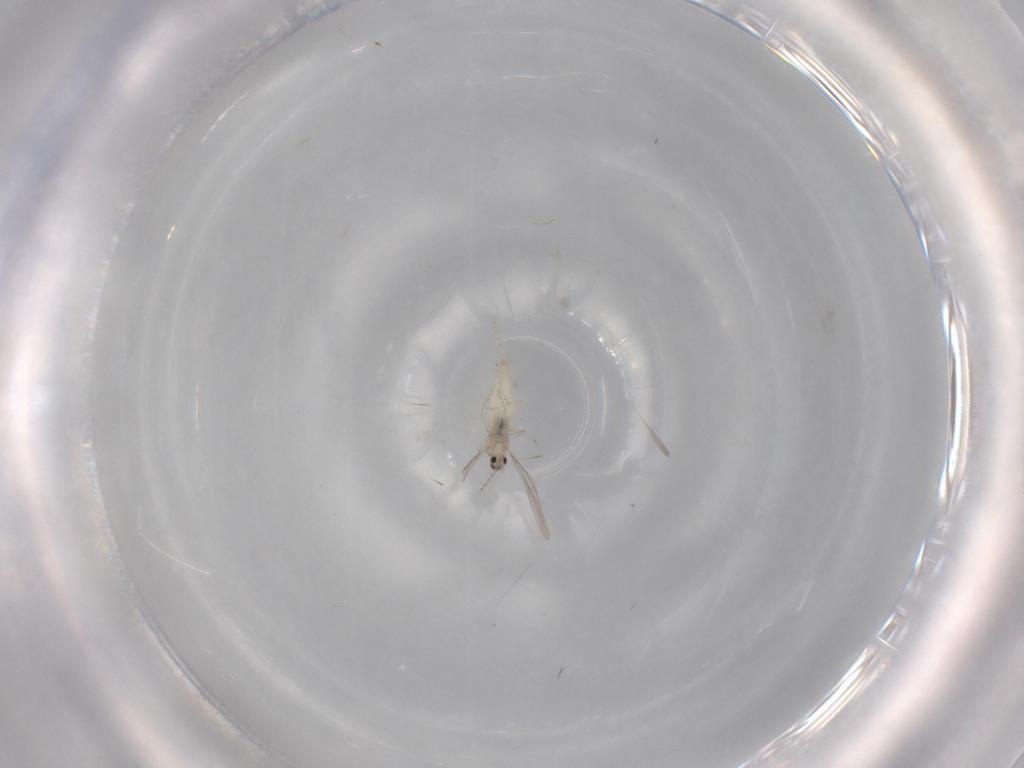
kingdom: Animalia
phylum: Arthropoda
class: Insecta
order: Diptera
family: Cecidomyiidae
